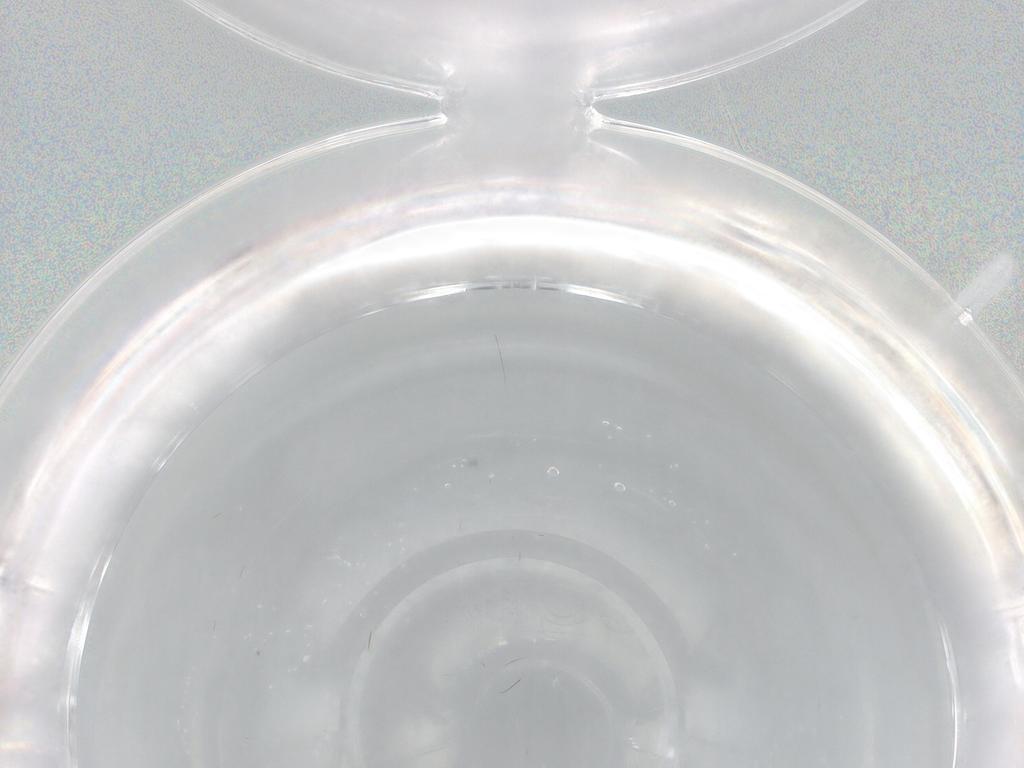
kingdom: Animalia
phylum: Arthropoda
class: Insecta
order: Diptera
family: Ceratopogonidae
